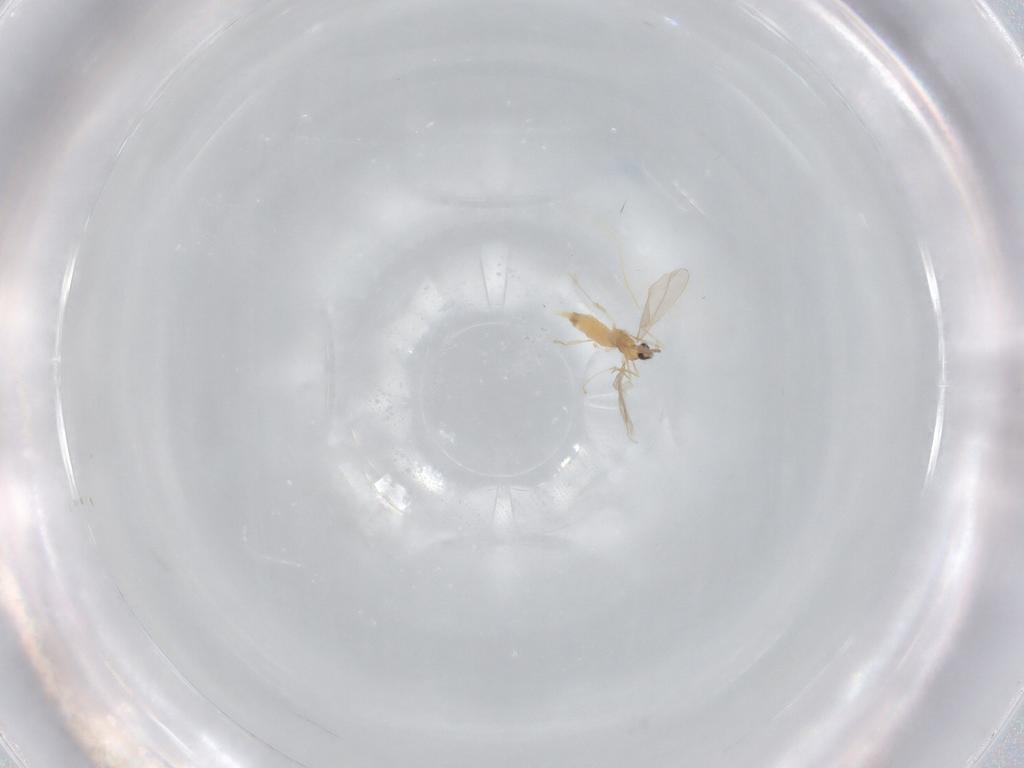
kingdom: Animalia
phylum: Arthropoda
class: Insecta
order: Diptera
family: Cecidomyiidae
